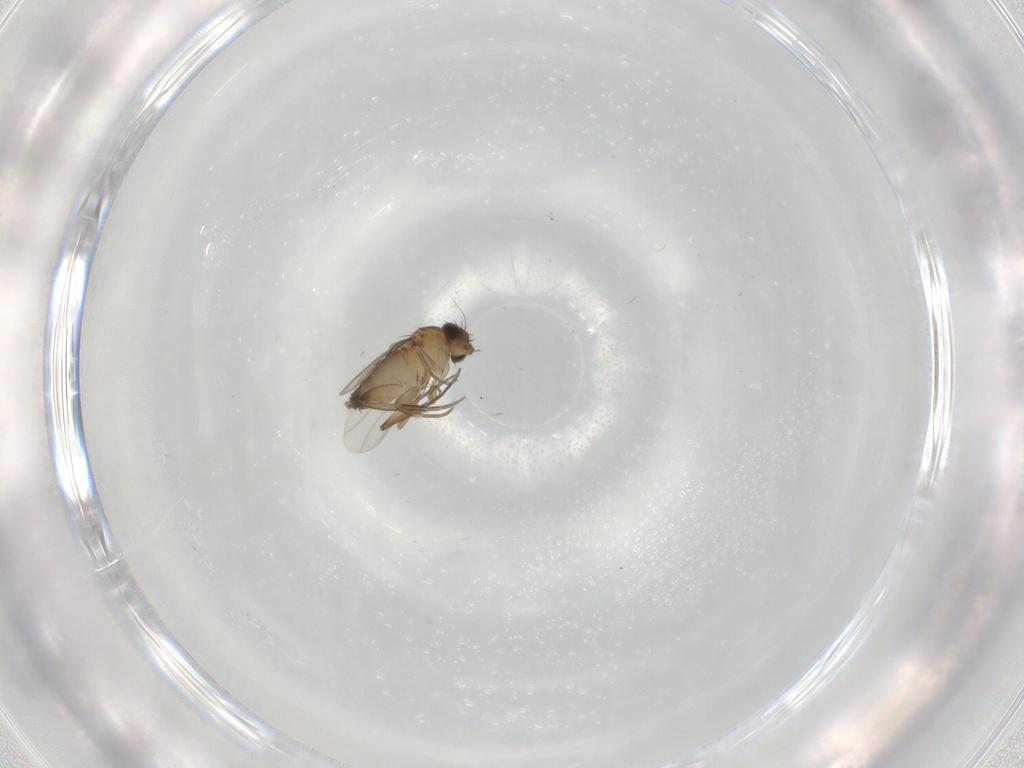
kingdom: Animalia
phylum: Arthropoda
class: Insecta
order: Diptera
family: Phoridae
